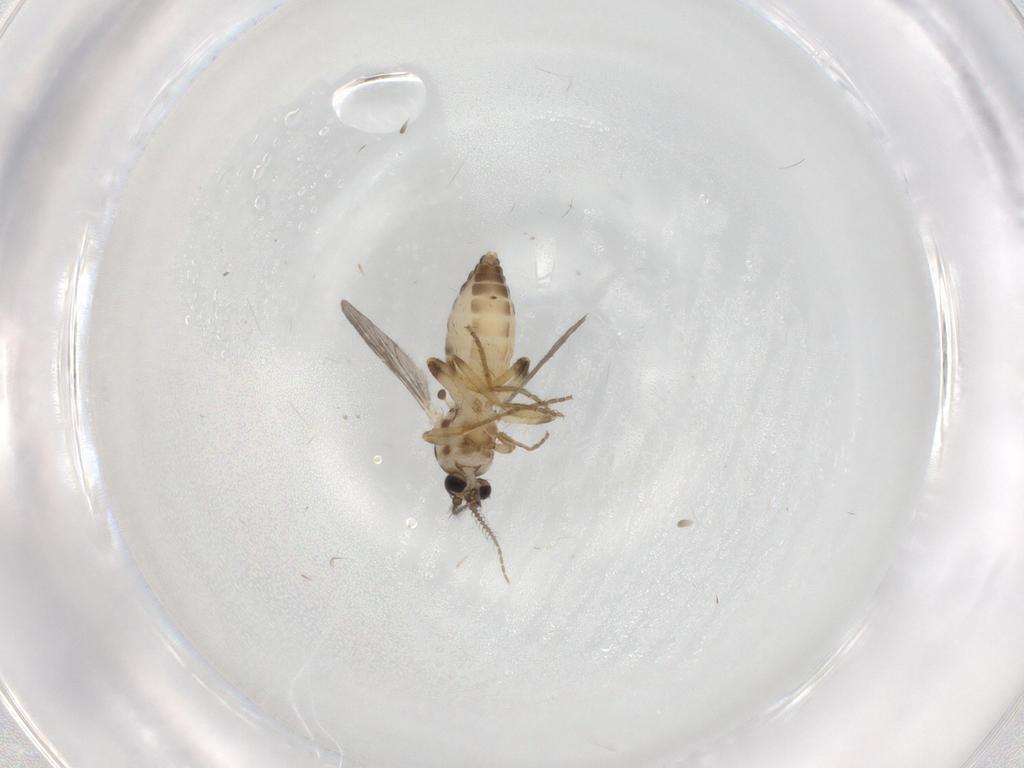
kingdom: Animalia
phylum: Arthropoda
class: Insecta
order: Diptera
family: Ceratopogonidae
